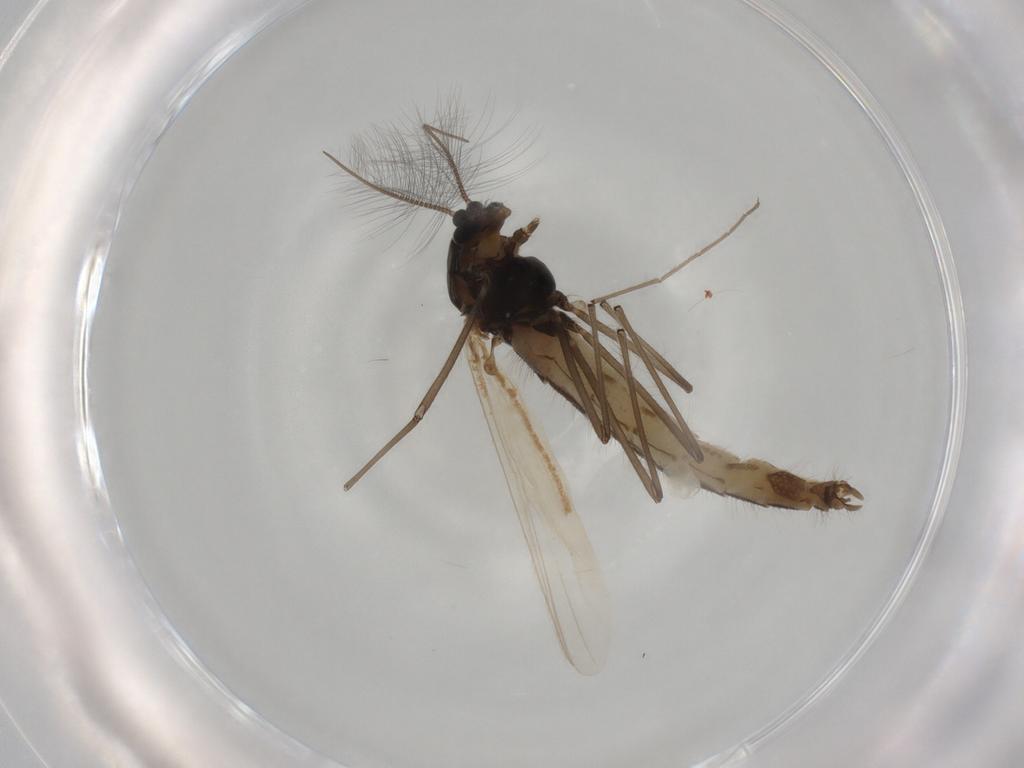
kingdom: Animalia
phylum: Arthropoda
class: Insecta
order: Diptera
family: Chironomidae
